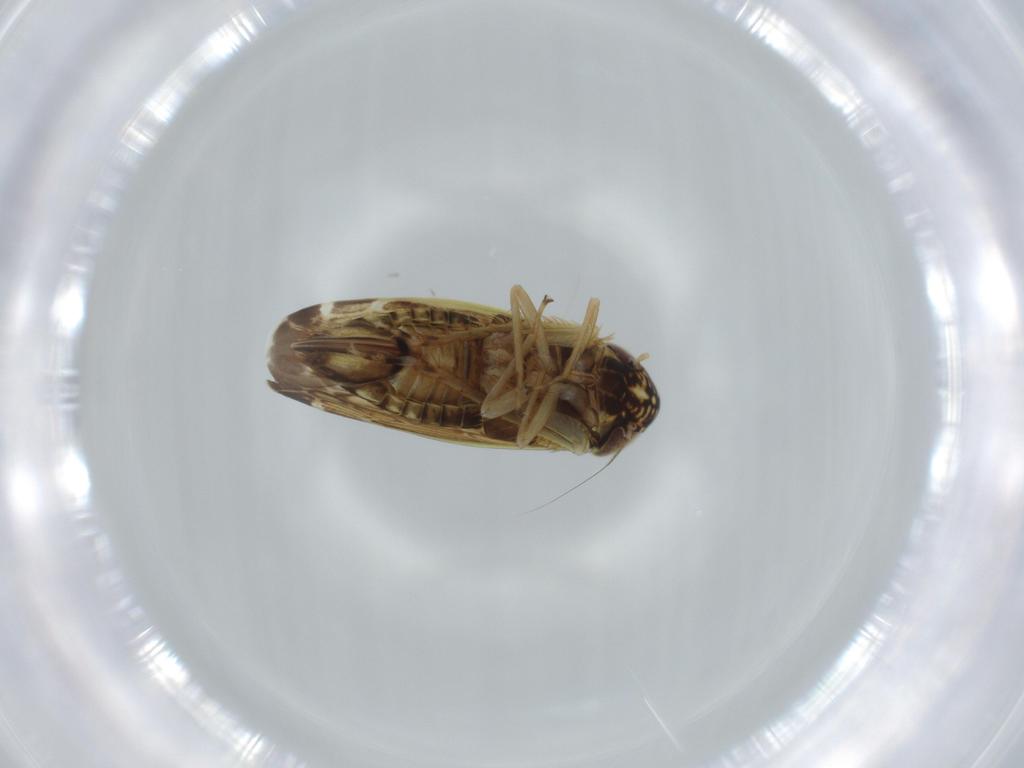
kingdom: Animalia
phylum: Arthropoda
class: Insecta
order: Hemiptera
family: Cicadellidae
